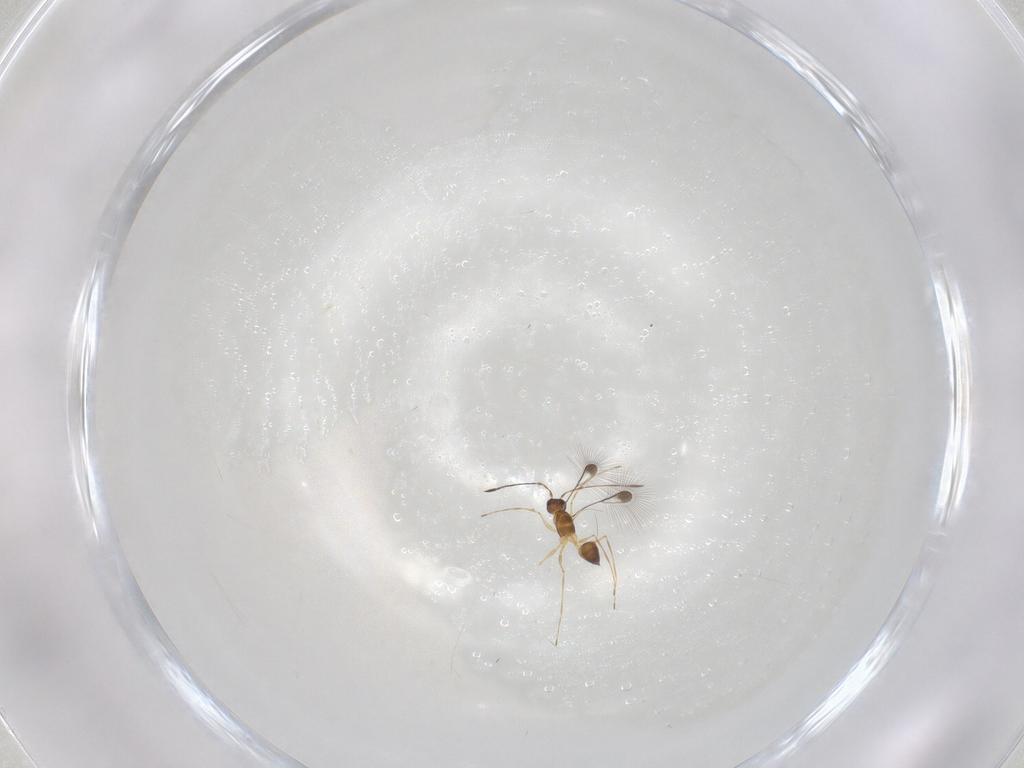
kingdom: Animalia
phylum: Arthropoda
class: Insecta
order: Hymenoptera
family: Mymaridae
